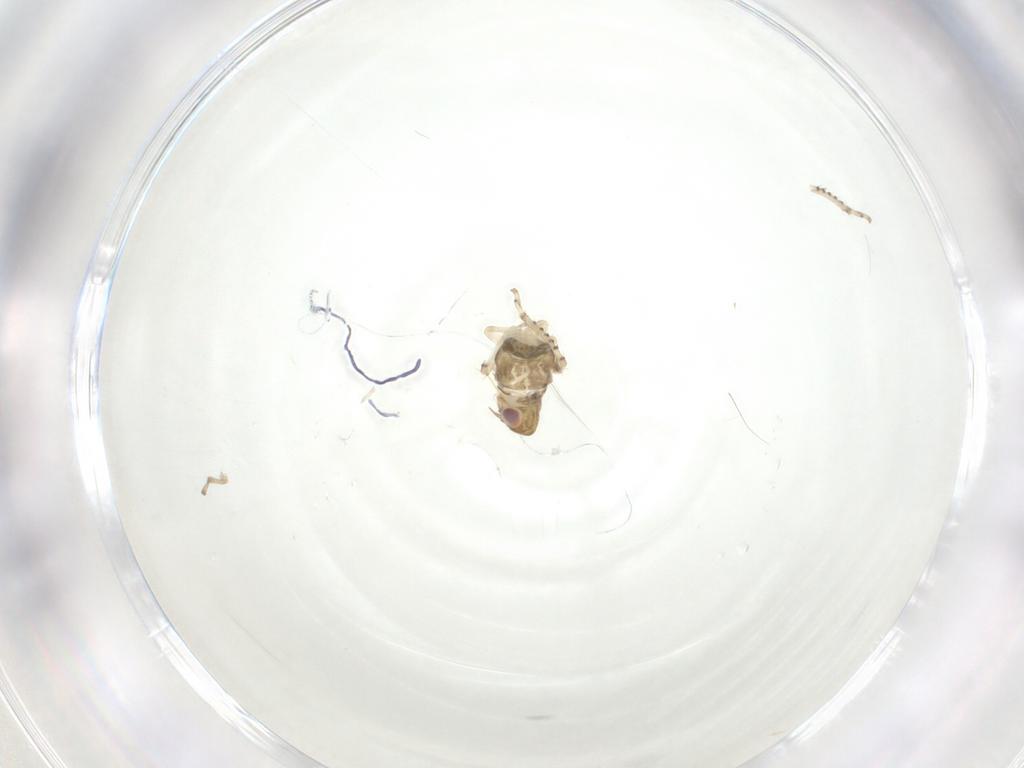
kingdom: Animalia
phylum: Arthropoda
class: Insecta
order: Hemiptera
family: Cicadellidae
